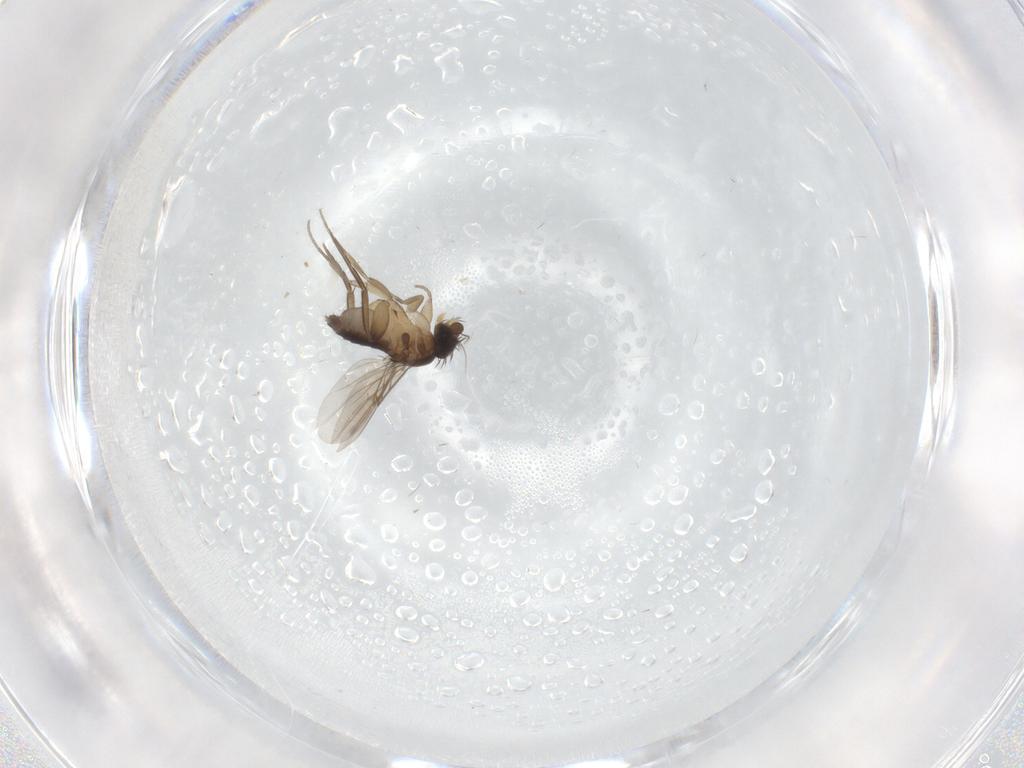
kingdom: Animalia
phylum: Arthropoda
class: Insecta
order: Diptera
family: Phoridae
